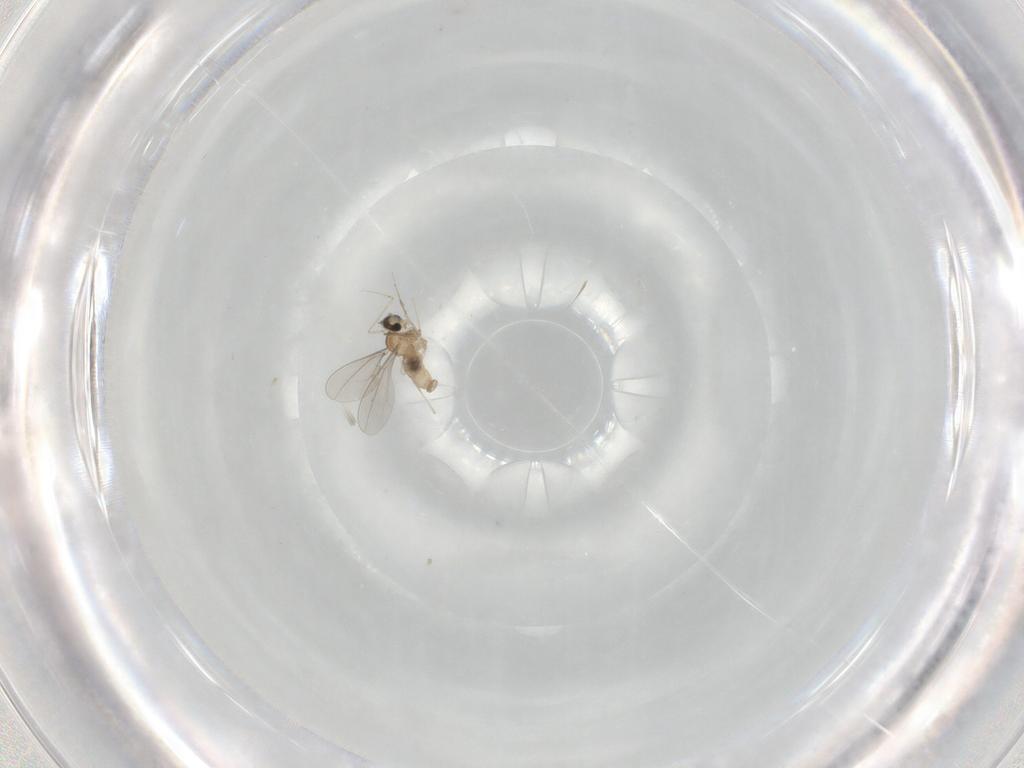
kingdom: Animalia
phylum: Arthropoda
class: Insecta
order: Diptera
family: Cecidomyiidae
